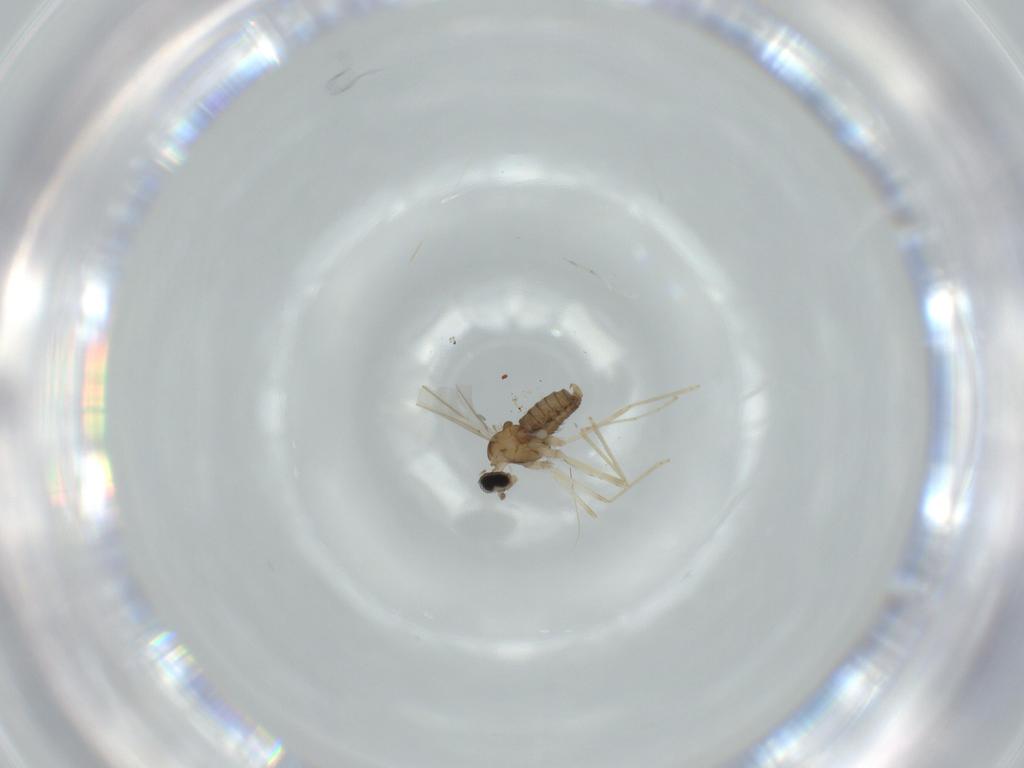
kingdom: Animalia
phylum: Arthropoda
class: Insecta
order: Diptera
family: Cecidomyiidae
